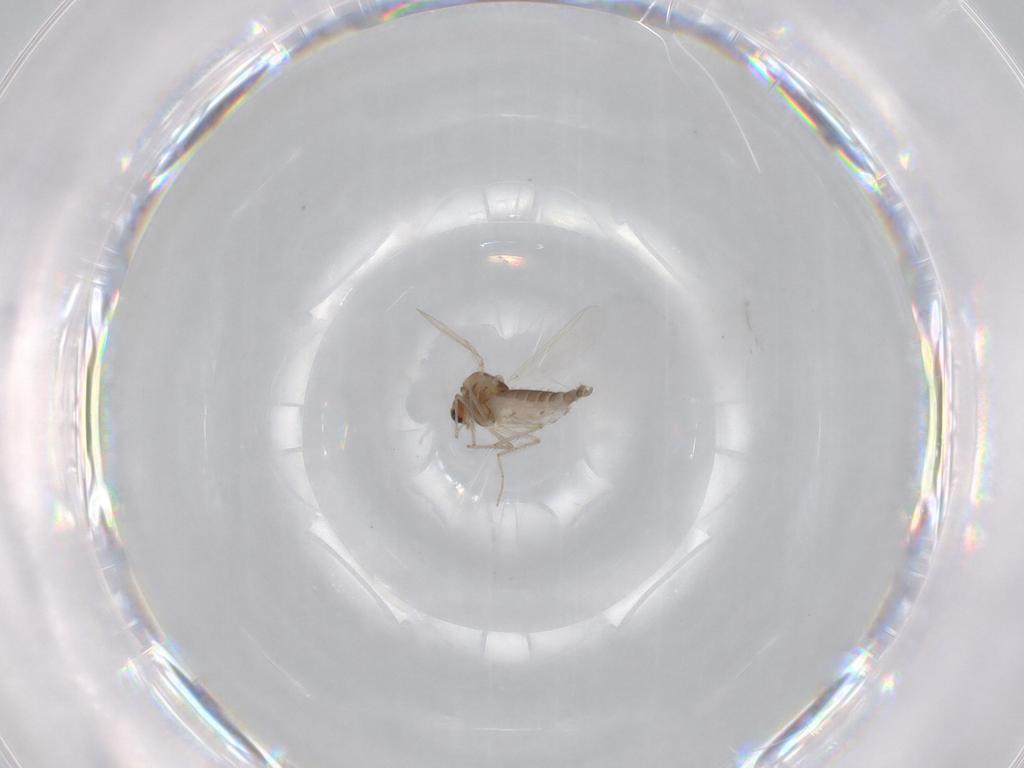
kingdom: Animalia
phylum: Arthropoda
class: Insecta
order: Diptera
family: Chironomidae
